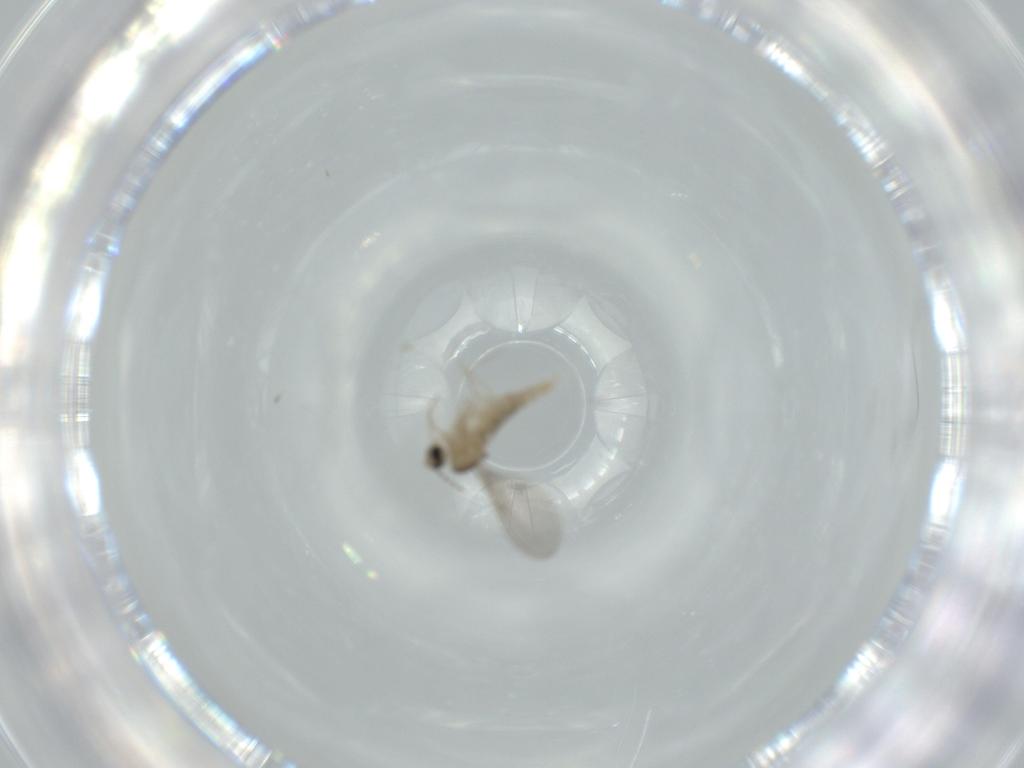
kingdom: Animalia
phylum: Arthropoda
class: Insecta
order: Diptera
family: Cecidomyiidae
